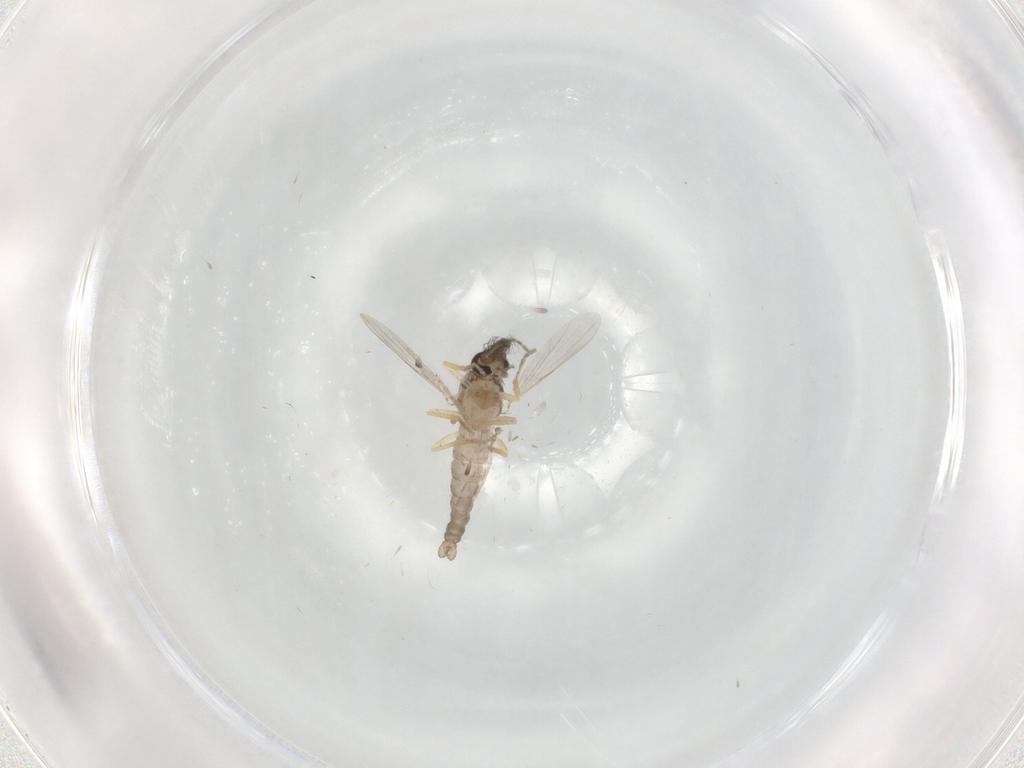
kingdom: Animalia
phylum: Arthropoda
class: Insecta
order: Diptera
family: Ceratopogonidae
